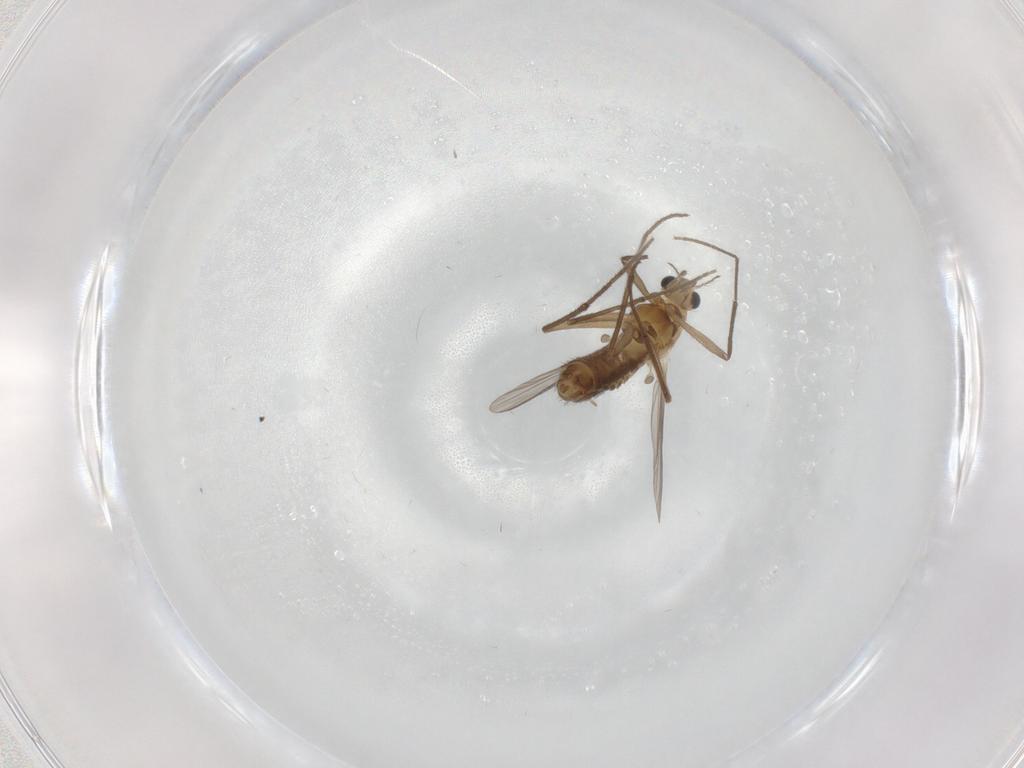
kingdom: Animalia
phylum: Arthropoda
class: Insecta
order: Diptera
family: Chironomidae
